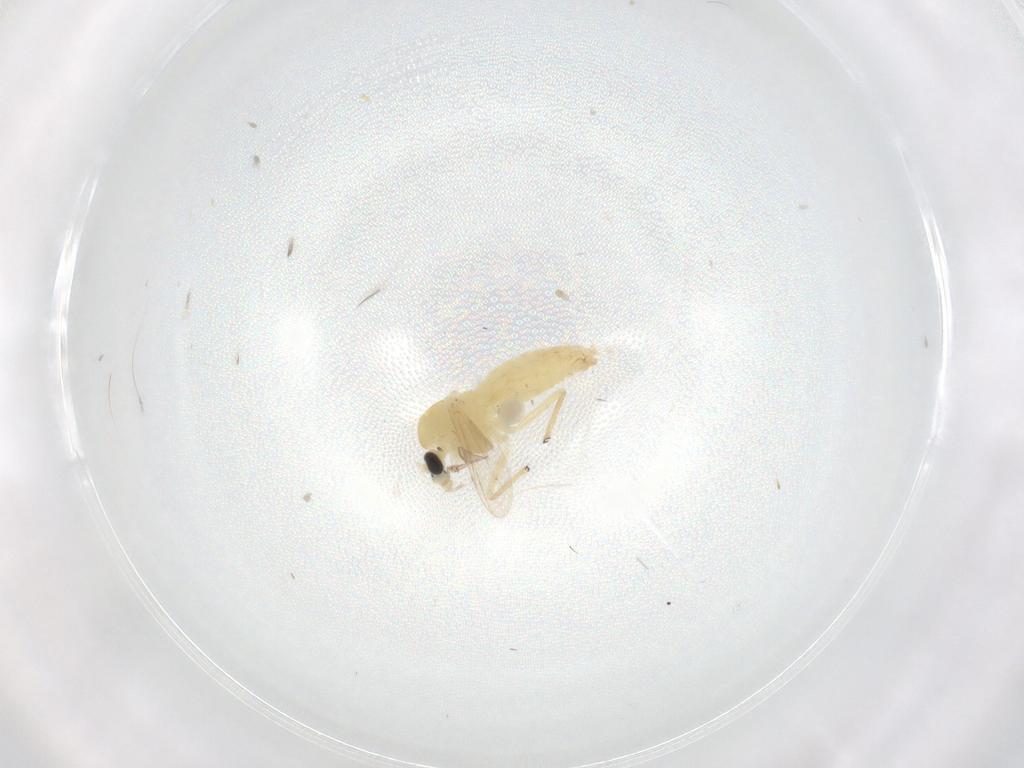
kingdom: Animalia
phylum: Arthropoda
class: Insecta
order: Diptera
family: Chironomidae
